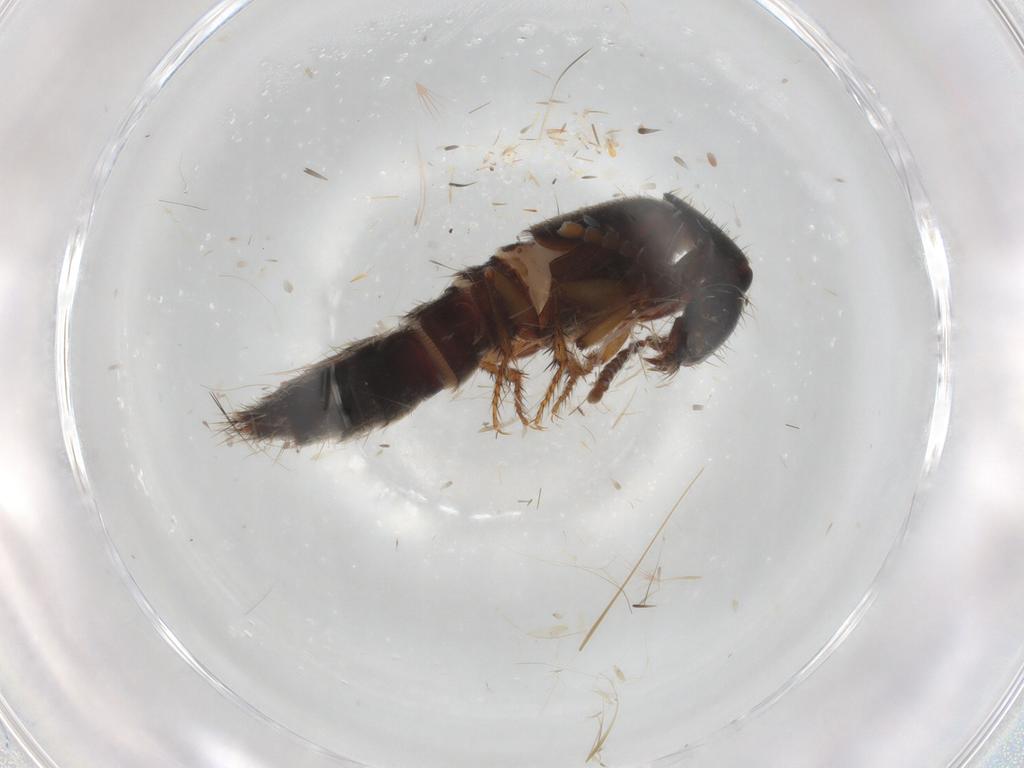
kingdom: Animalia
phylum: Arthropoda
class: Insecta
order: Coleoptera
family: Staphylinidae
